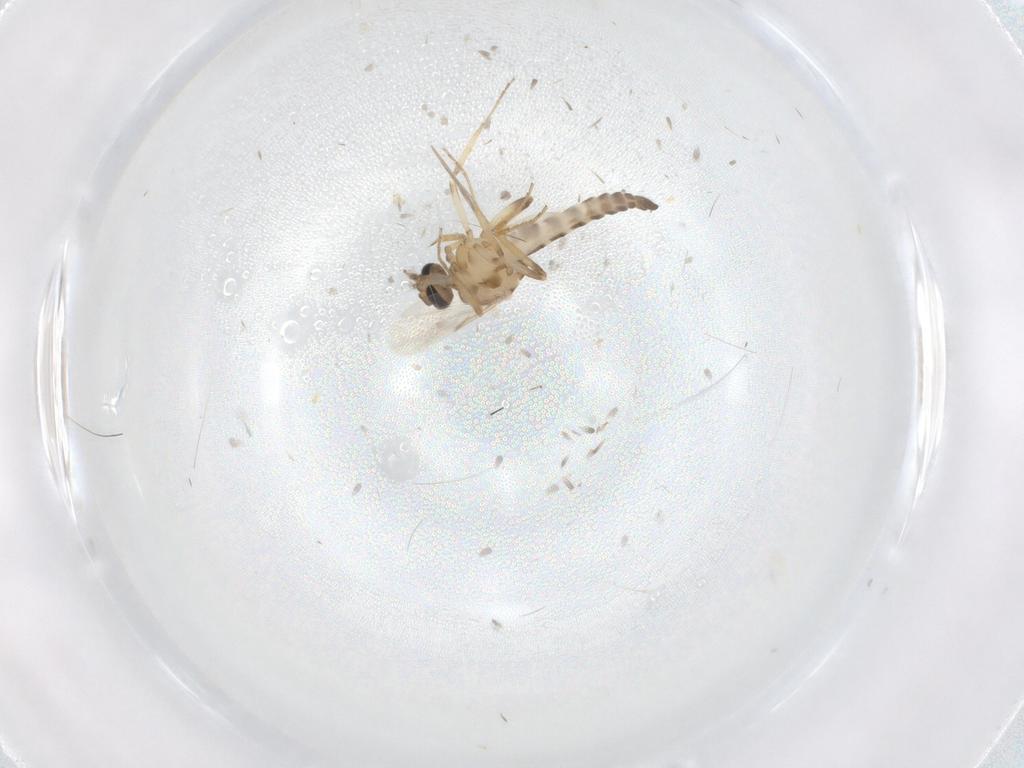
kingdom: Animalia
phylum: Arthropoda
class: Insecta
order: Diptera
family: Ceratopogonidae
